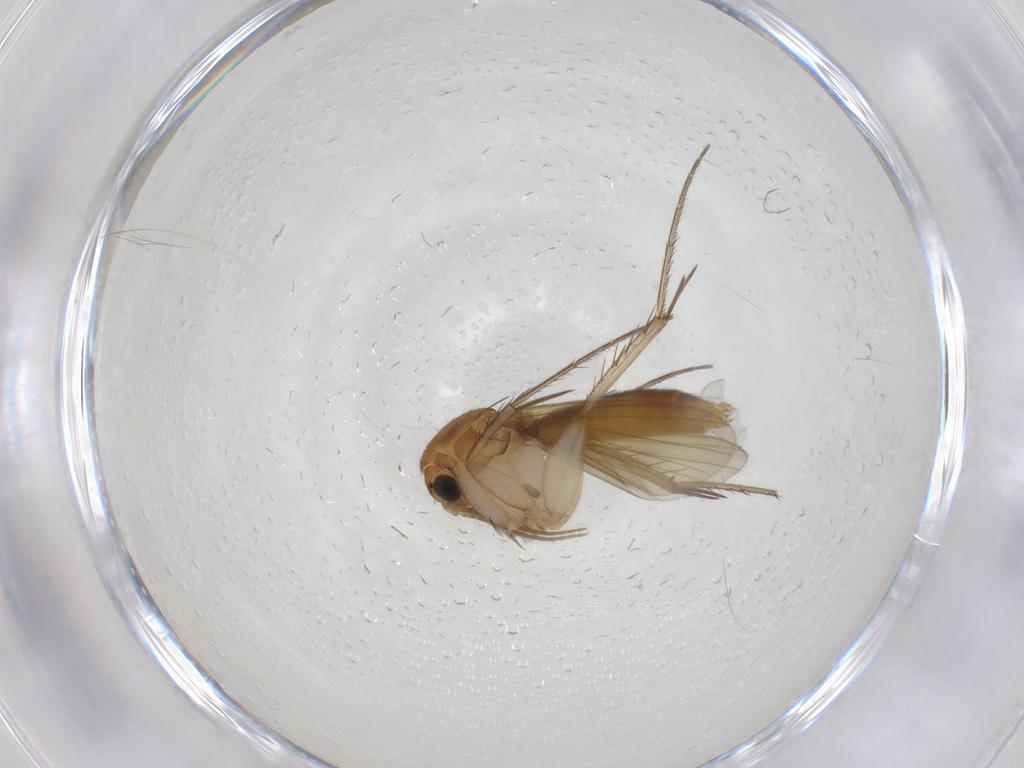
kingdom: Animalia
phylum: Arthropoda
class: Insecta
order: Diptera
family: Mycetophilidae
